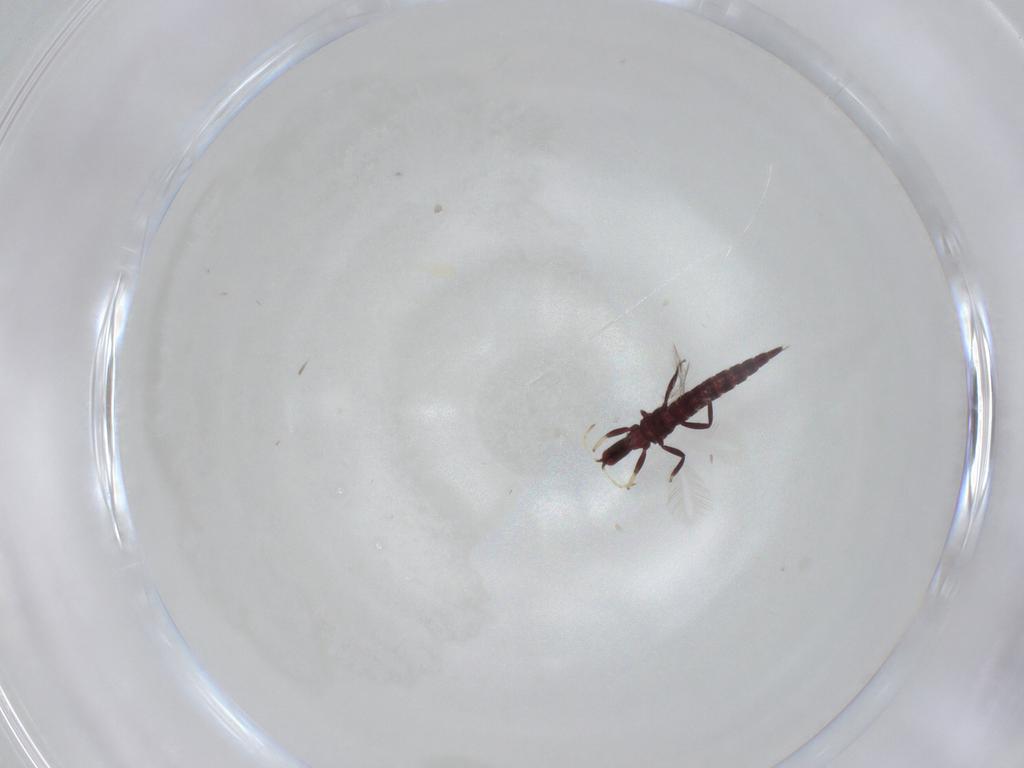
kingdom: Animalia
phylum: Arthropoda
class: Insecta
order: Thysanoptera
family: Phlaeothripidae
